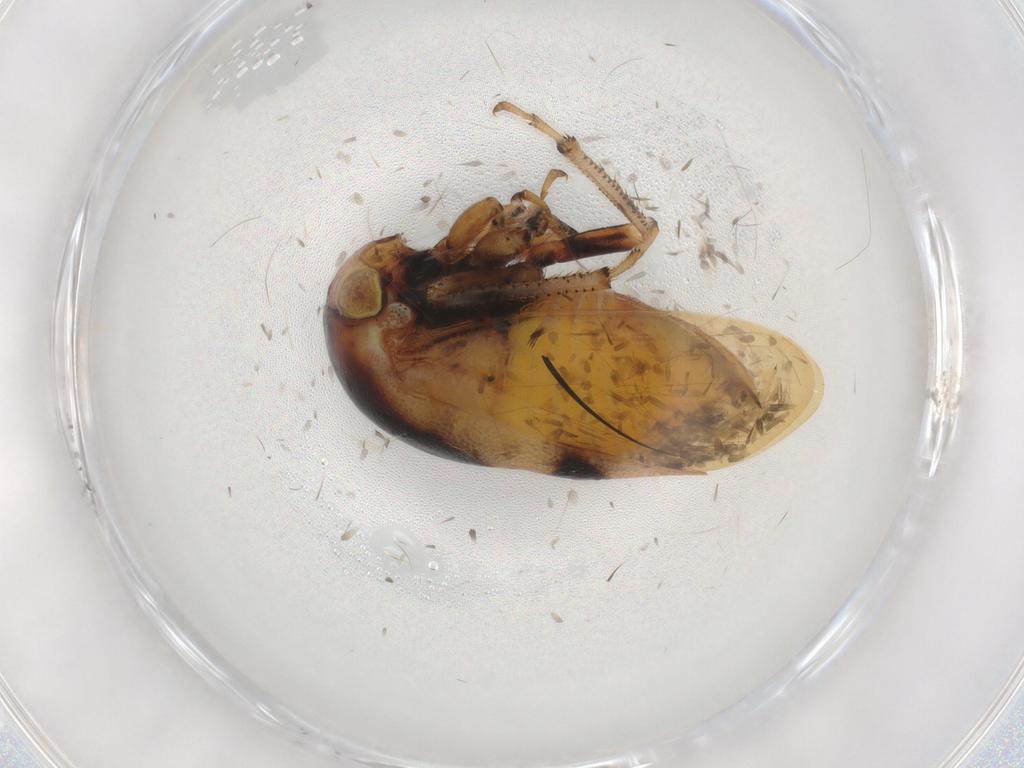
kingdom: Animalia
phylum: Arthropoda
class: Insecta
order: Hemiptera
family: Membracidae
